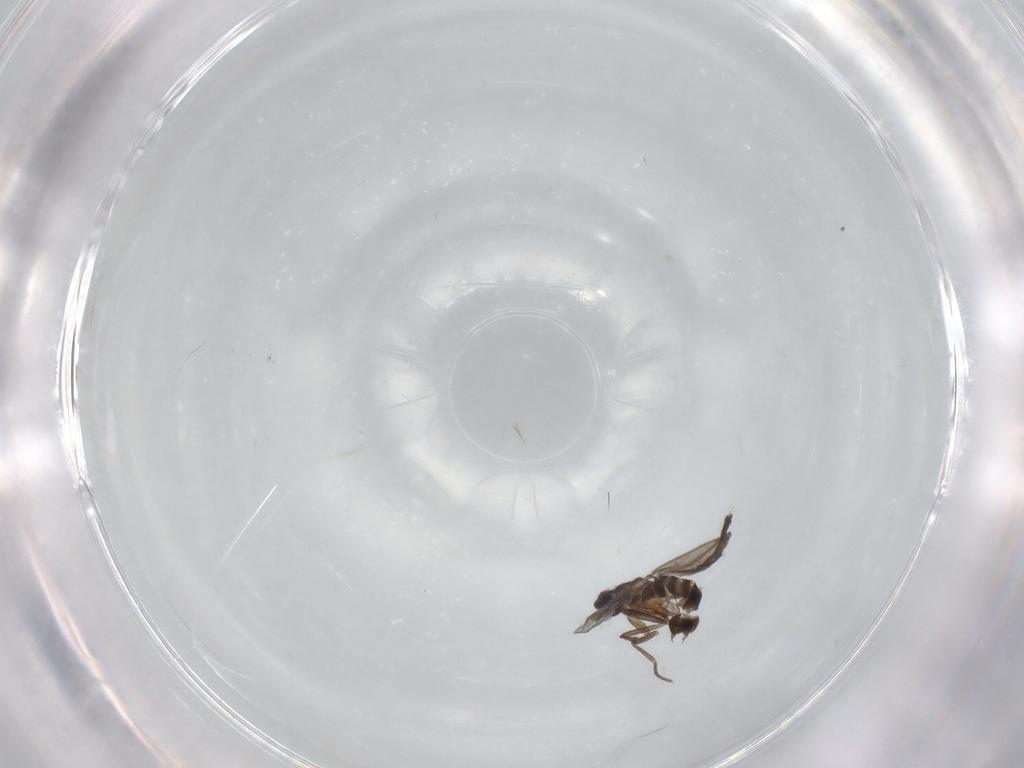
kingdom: Animalia
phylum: Arthropoda
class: Insecta
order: Diptera
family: Phoridae
